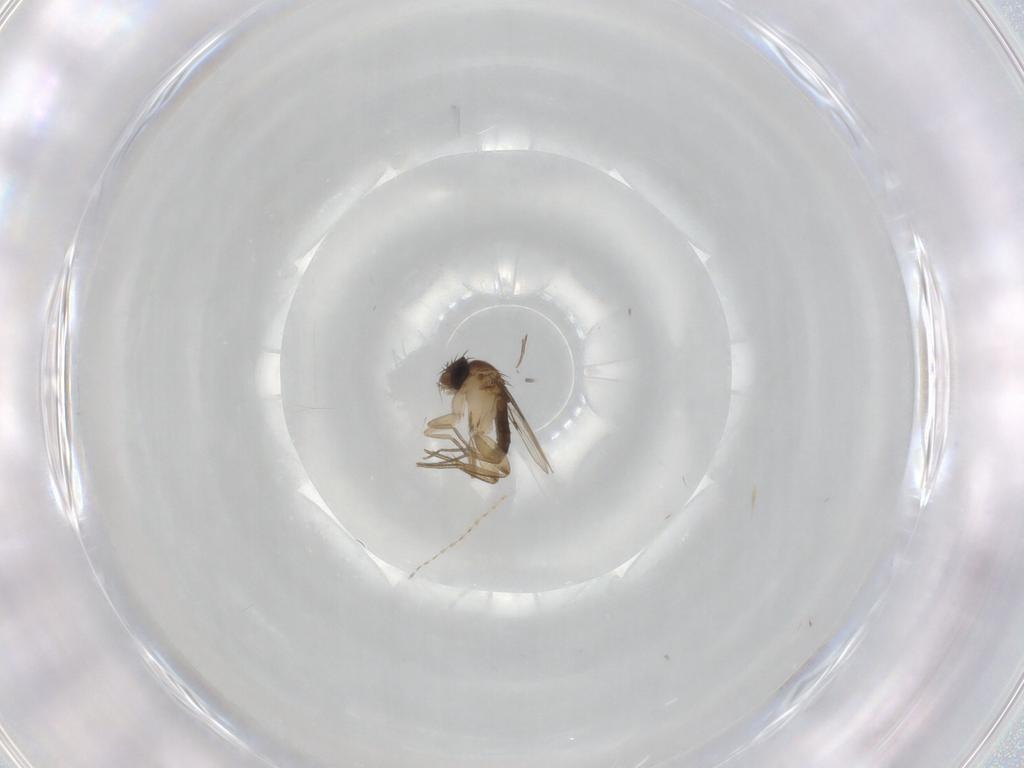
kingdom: Animalia
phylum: Arthropoda
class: Insecta
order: Diptera
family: Phoridae
